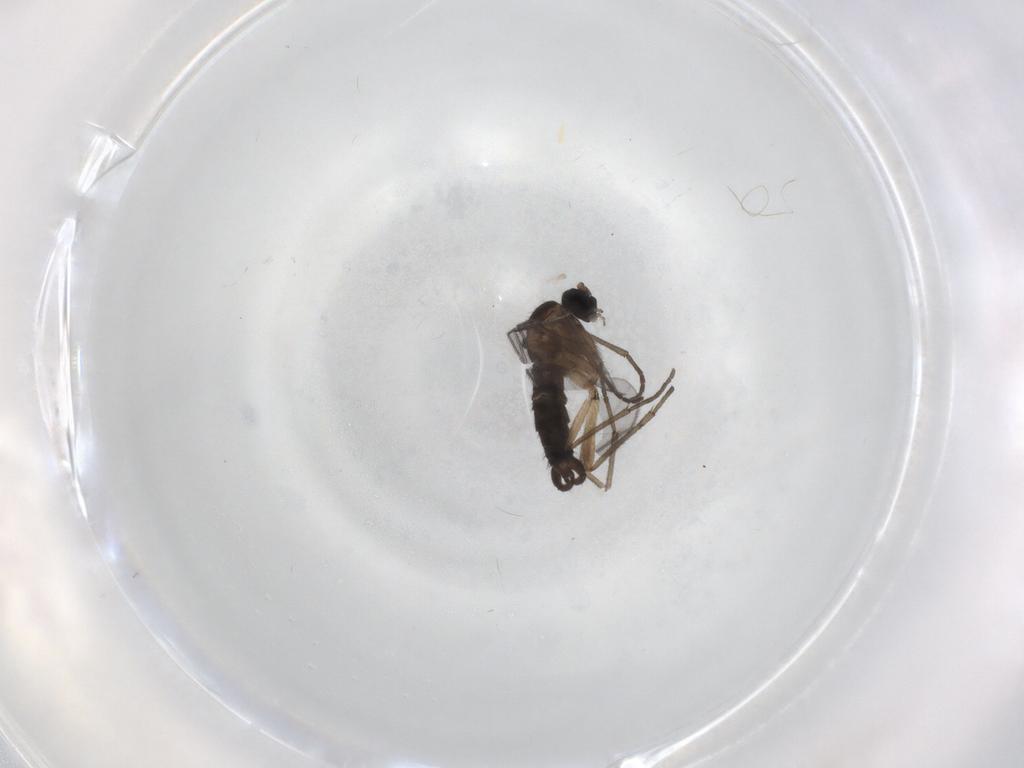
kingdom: Animalia
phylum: Arthropoda
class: Insecta
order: Diptera
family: Sciaridae
